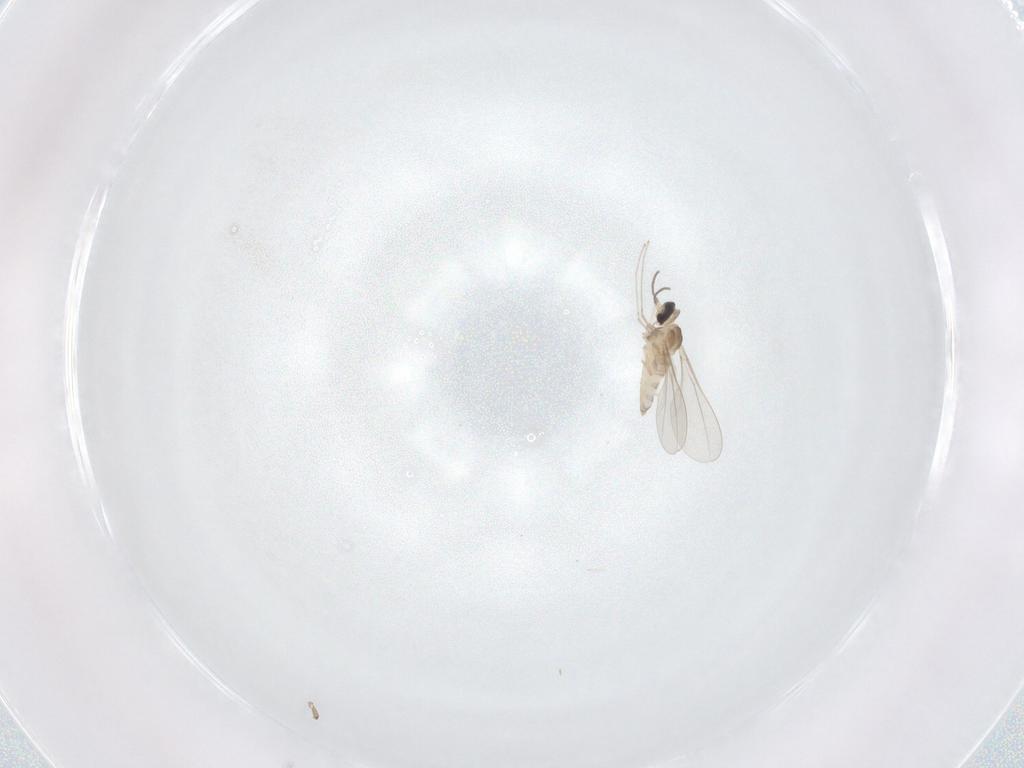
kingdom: Animalia
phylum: Arthropoda
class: Insecta
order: Diptera
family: Cecidomyiidae
